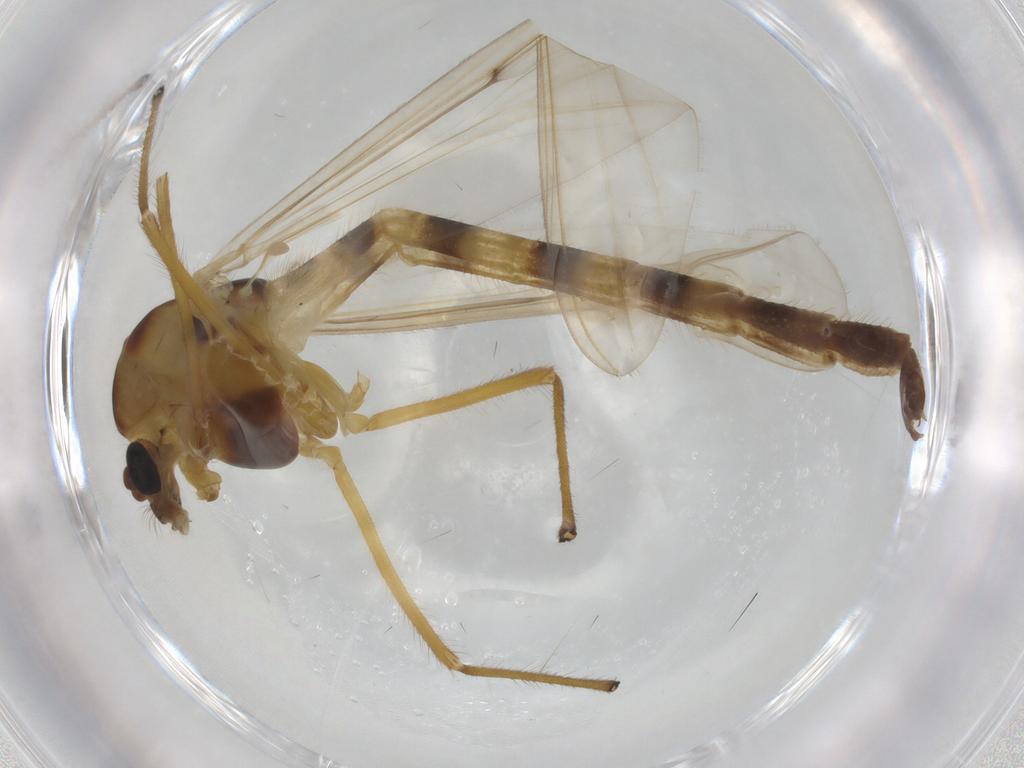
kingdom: Animalia
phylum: Arthropoda
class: Insecta
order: Diptera
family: Chironomidae
